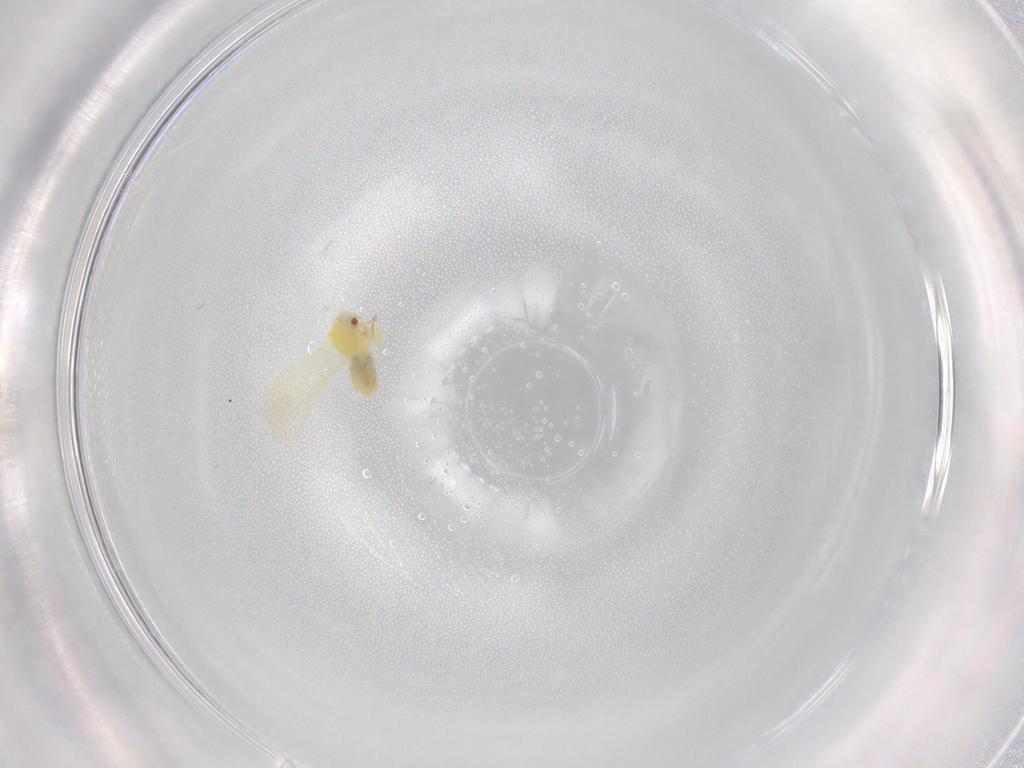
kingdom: Animalia
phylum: Arthropoda
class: Insecta
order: Hemiptera
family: Aleyrodidae
